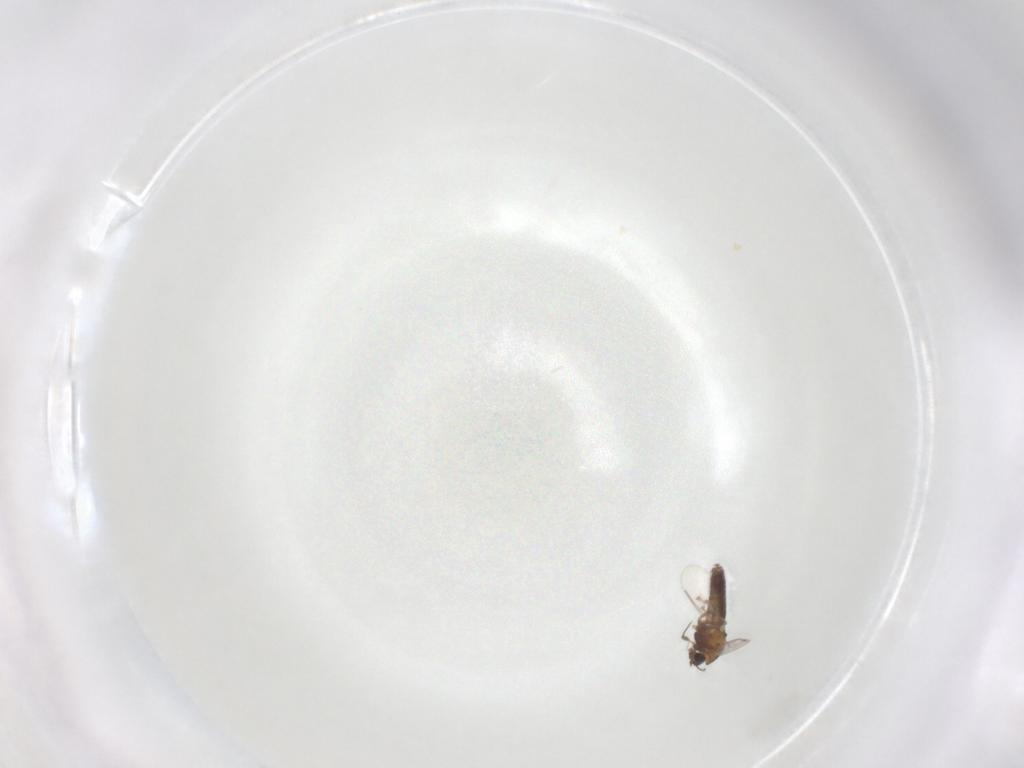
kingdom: Animalia
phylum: Arthropoda
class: Insecta
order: Diptera
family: Chironomidae
